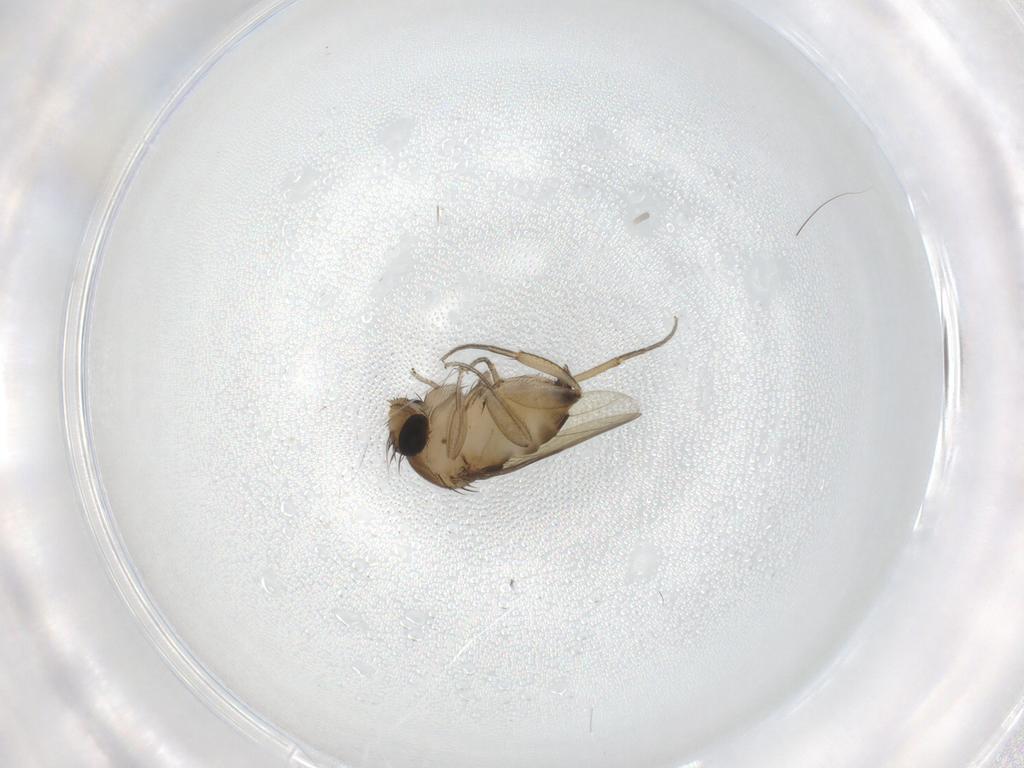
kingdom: Animalia
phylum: Arthropoda
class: Insecta
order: Diptera
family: Phoridae
